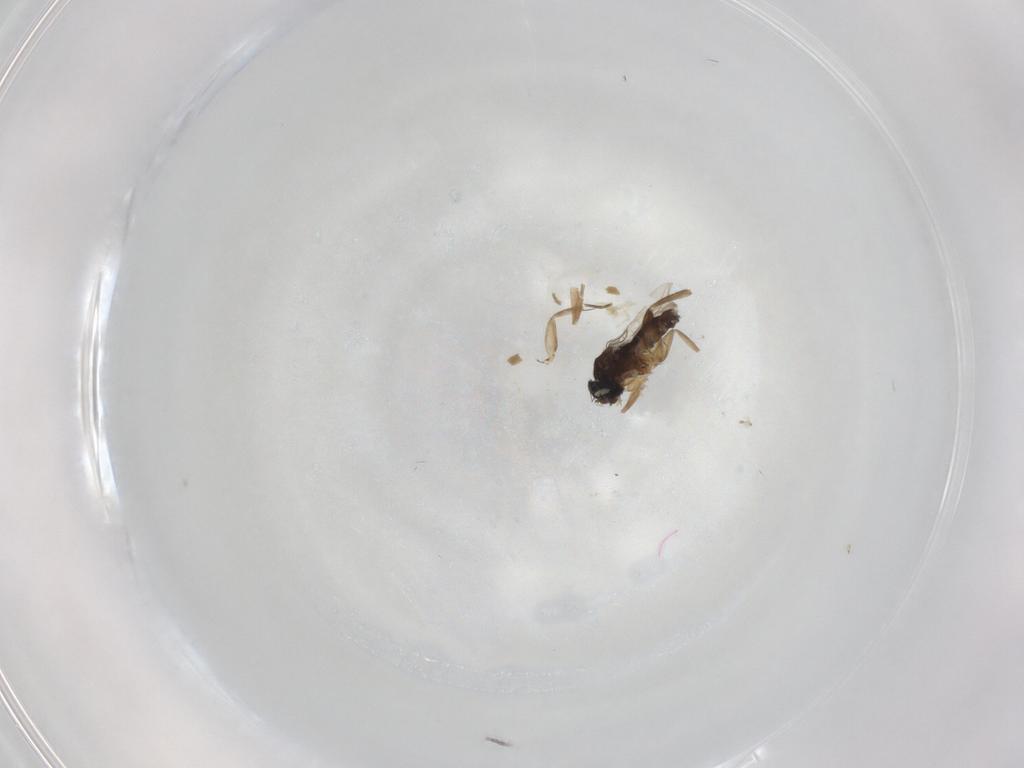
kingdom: Animalia
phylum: Arthropoda
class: Insecta
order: Diptera
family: Phoridae
